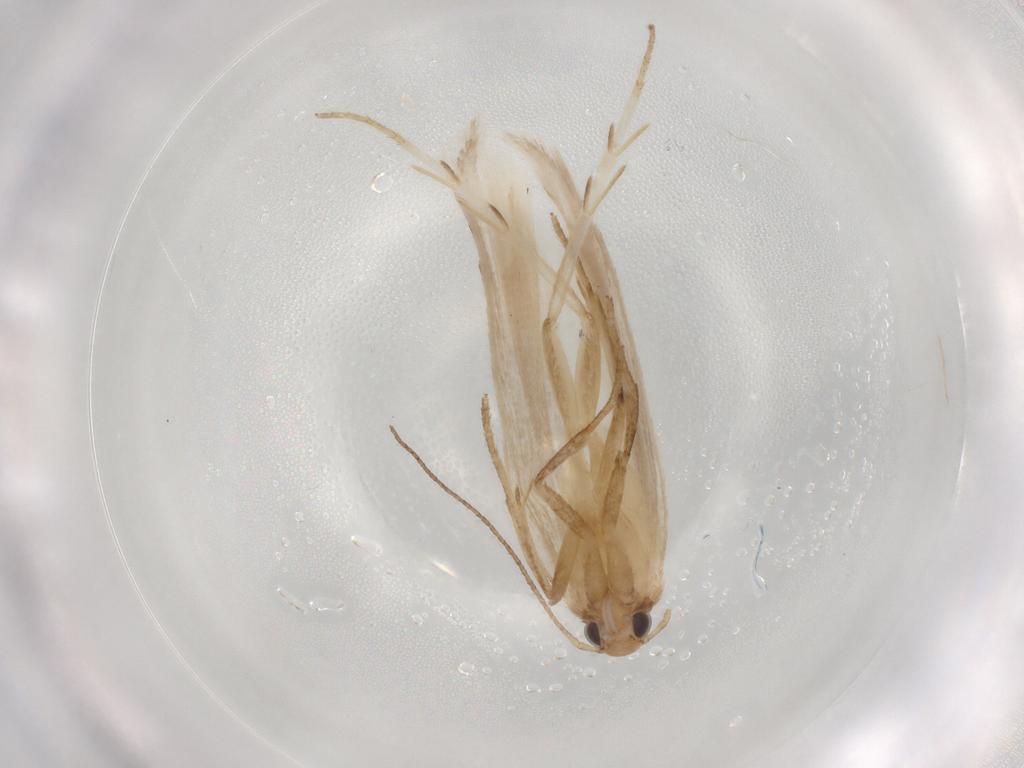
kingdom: Animalia
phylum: Arthropoda
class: Insecta
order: Lepidoptera
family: Gelechiidae
